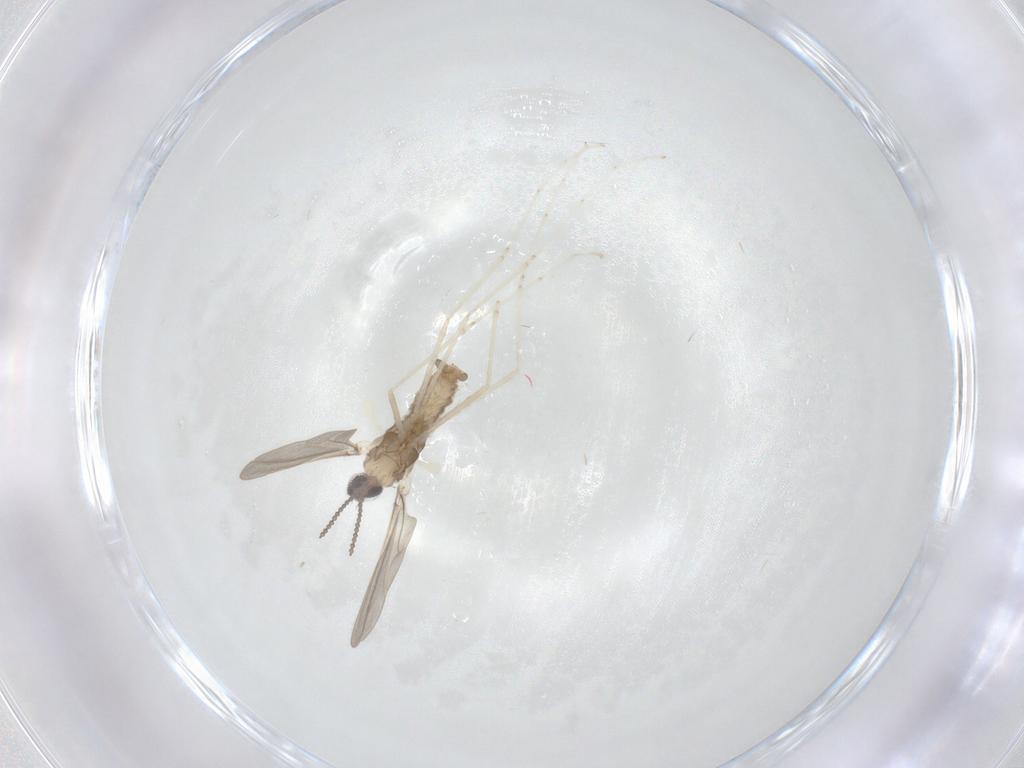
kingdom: Animalia
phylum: Arthropoda
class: Insecta
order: Diptera
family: Cecidomyiidae
